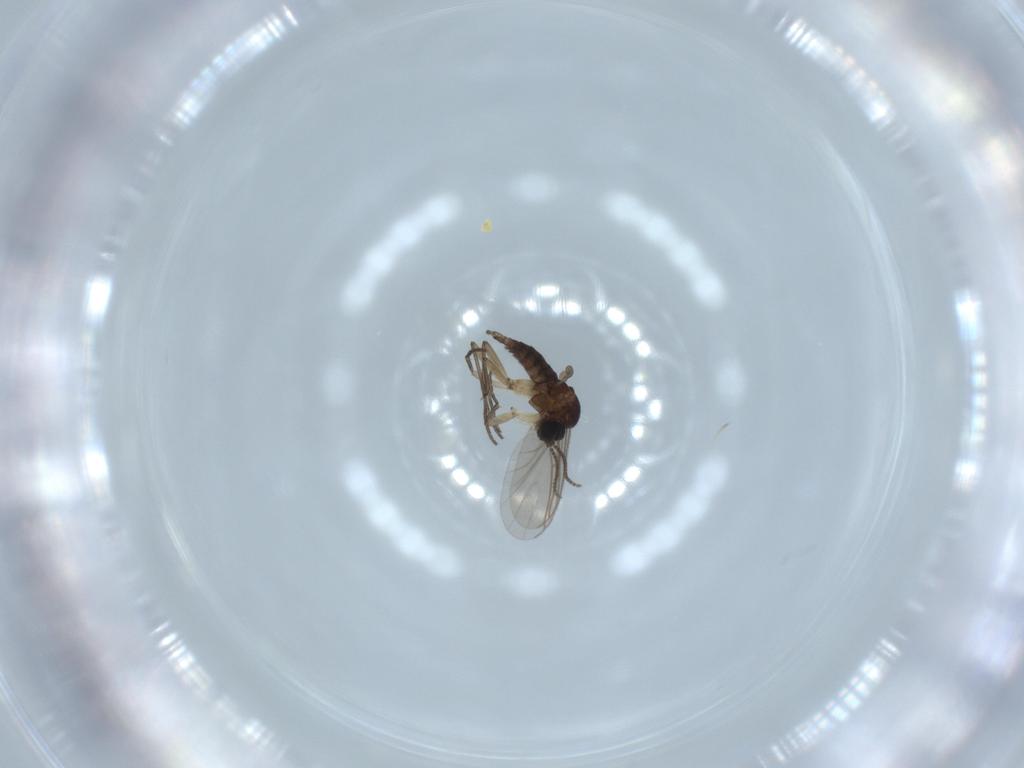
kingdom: Animalia
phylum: Arthropoda
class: Insecta
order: Diptera
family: Sciaridae
